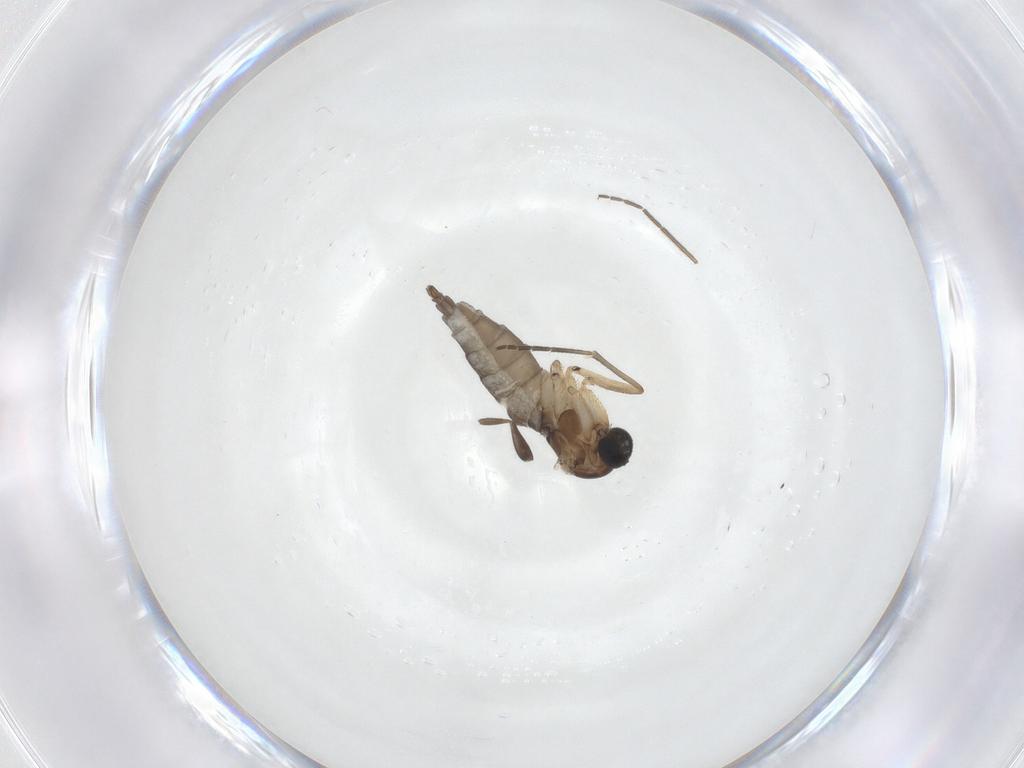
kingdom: Animalia
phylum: Arthropoda
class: Insecta
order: Diptera
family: Sciaridae
